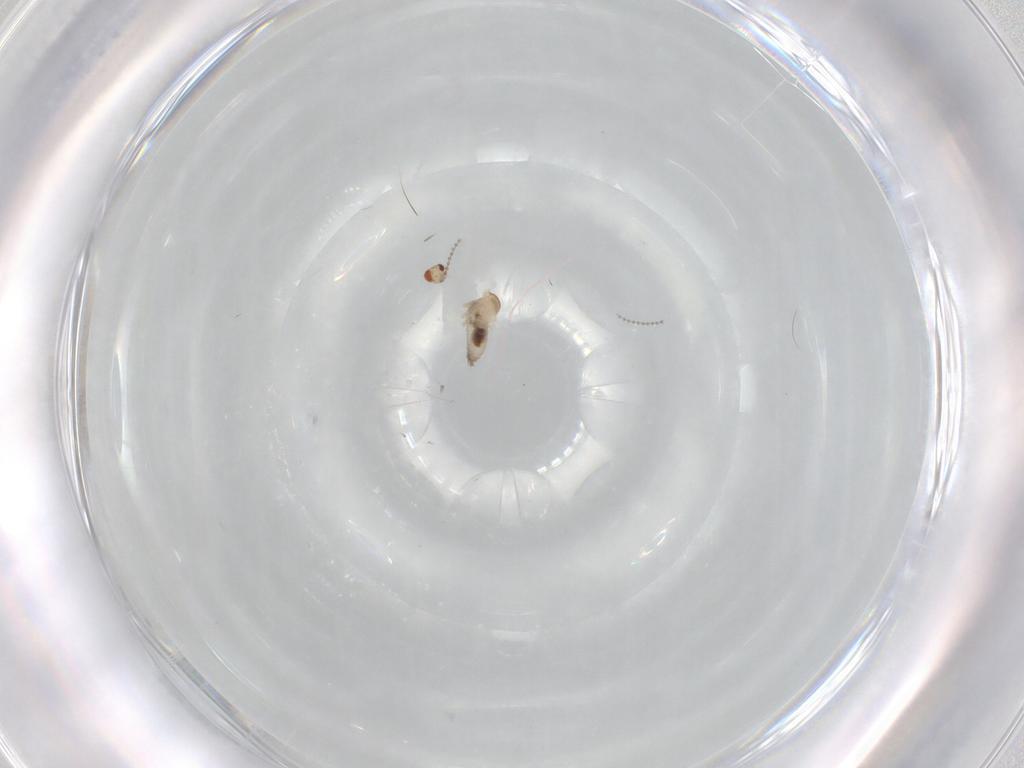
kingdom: Animalia
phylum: Arthropoda
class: Insecta
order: Diptera
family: Cecidomyiidae
